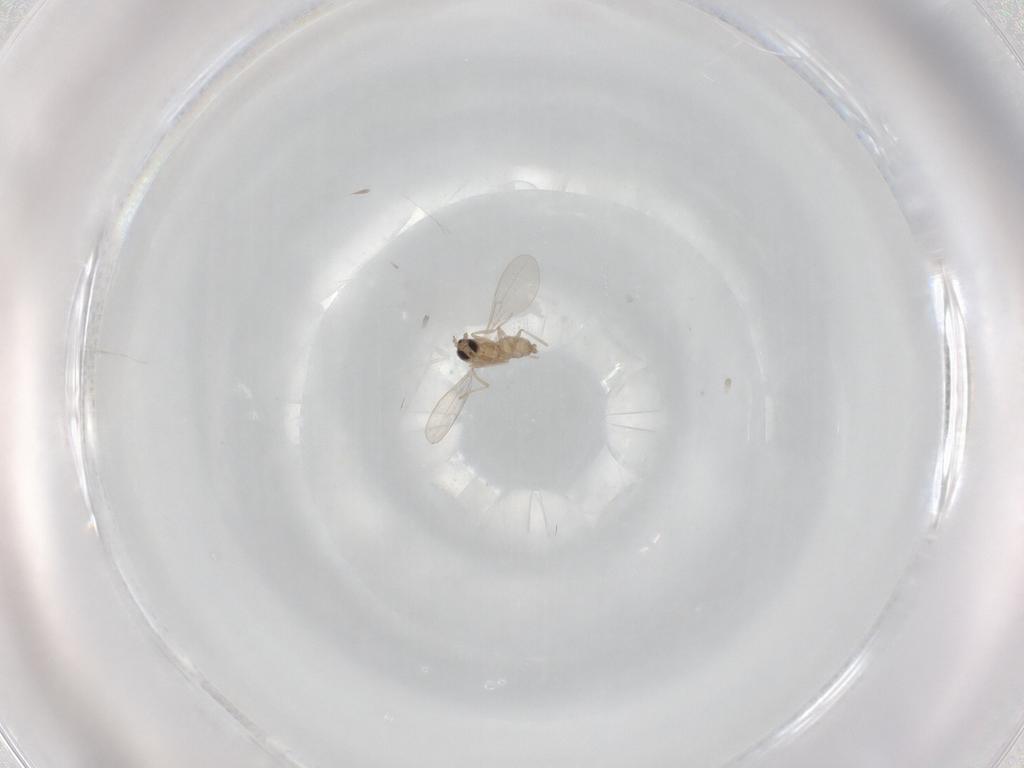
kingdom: Animalia
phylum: Arthropoda
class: Insecta
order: Diptera
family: Cecidomyiidae
